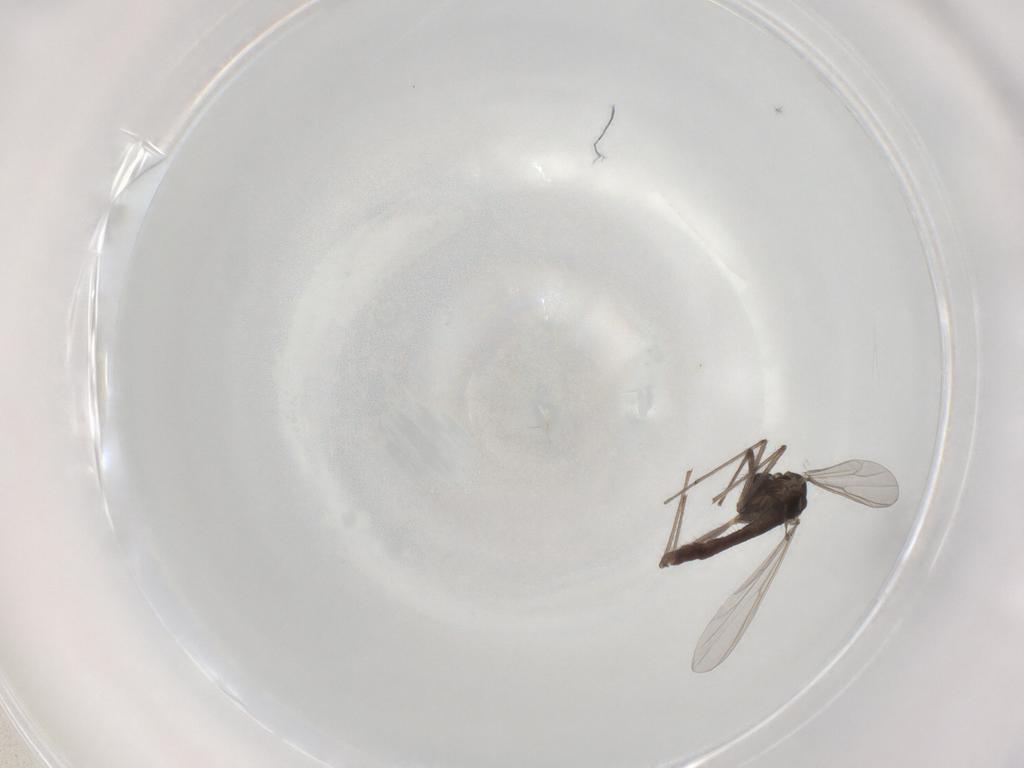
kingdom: Animalia
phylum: Arthropoda
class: Insecta
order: Diptera
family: Chironomidae
